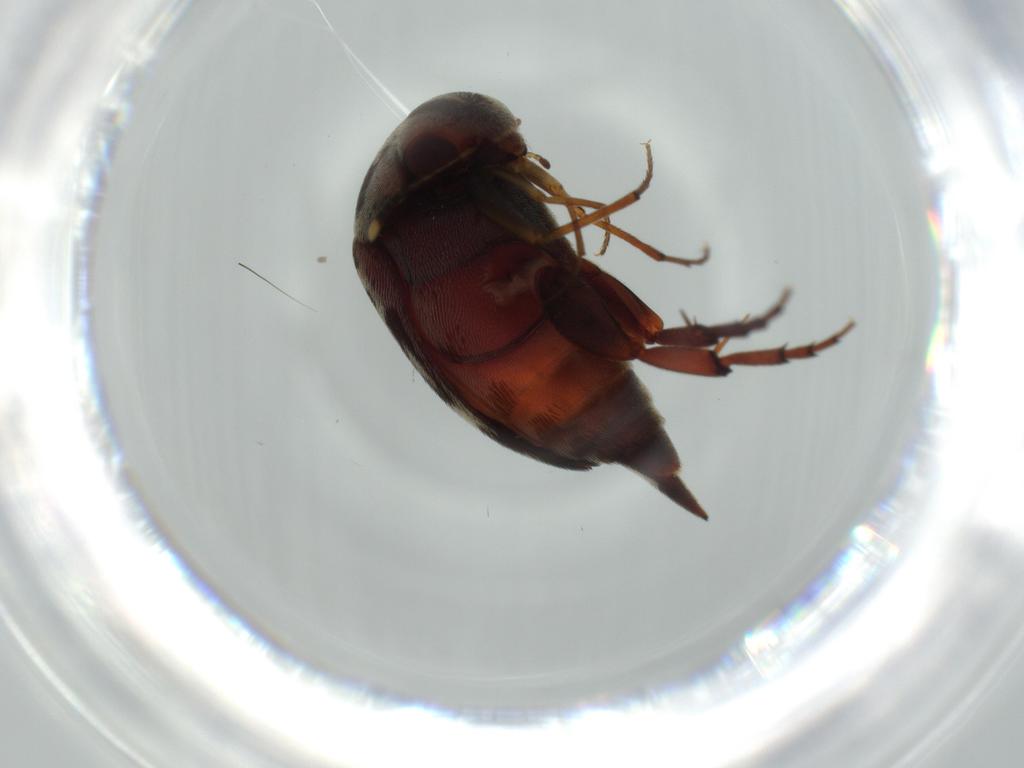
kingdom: Animalia
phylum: Arthropoda
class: Insecta
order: Coleoptera
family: Mordellidae
